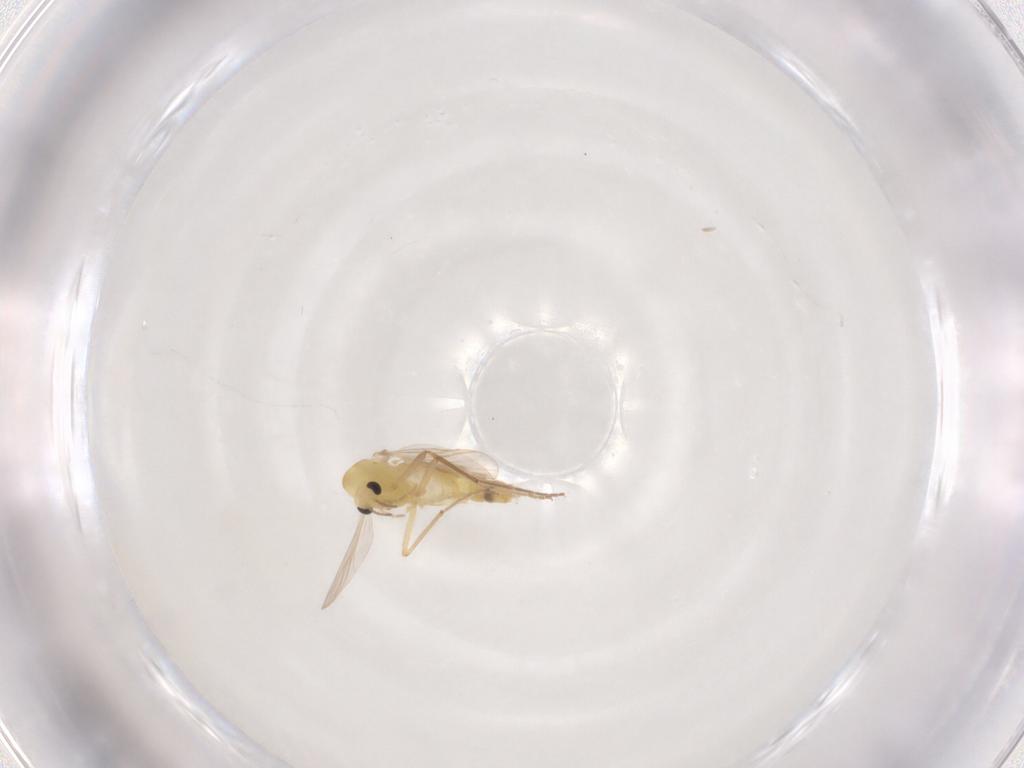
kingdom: Animalia
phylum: Arthropoda
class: Insecta
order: Diptera
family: Chironomidae
